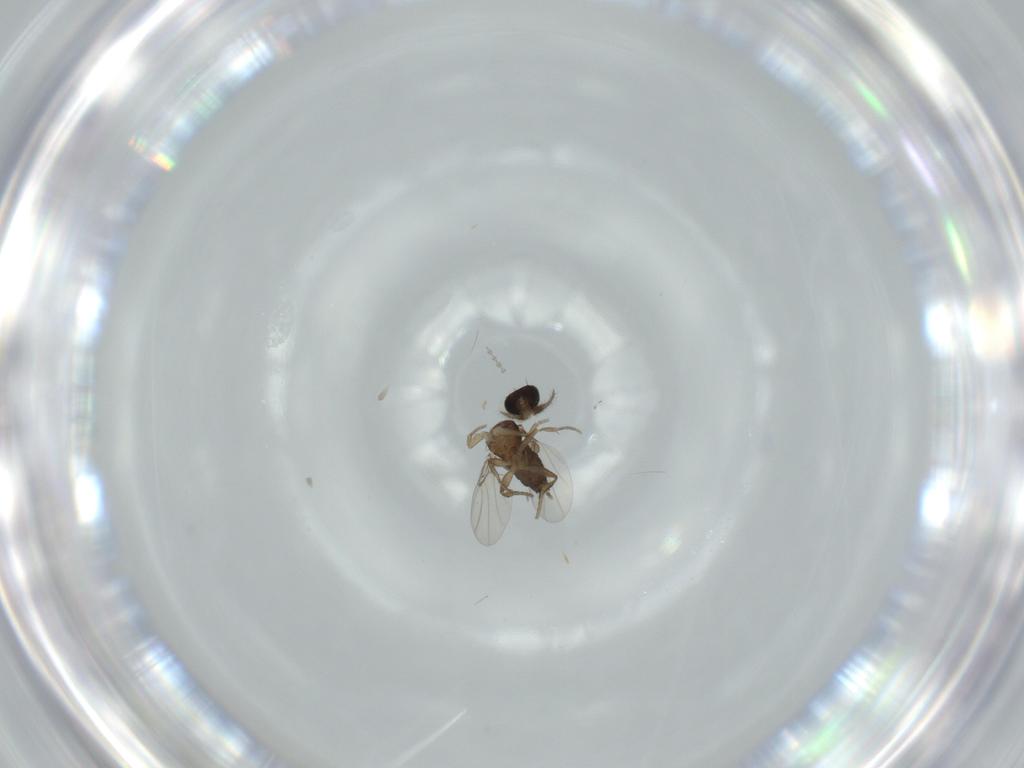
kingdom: Animalia
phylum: Arthropoda
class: Insecta
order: Diptera
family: Phoridae
